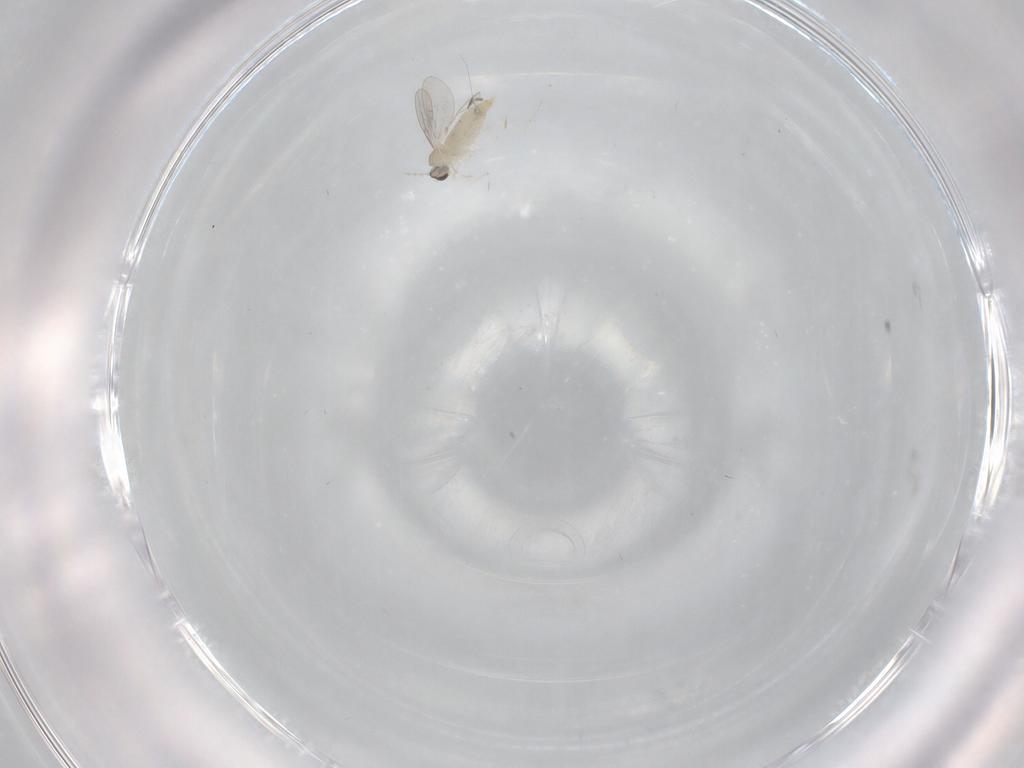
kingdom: Animalia
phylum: Arthropoda
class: Insecta
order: Diptera
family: Cecidomyiidae
